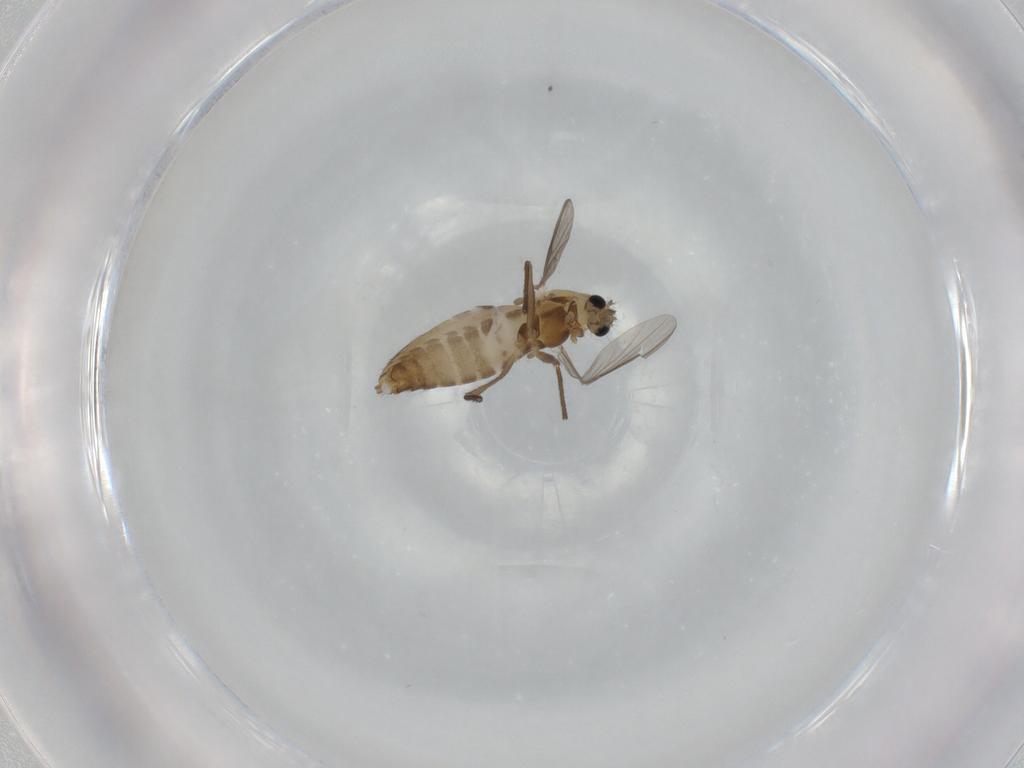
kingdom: Animalia
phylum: Arthropoda
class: Insecta
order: Diptera
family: Chironomidae
